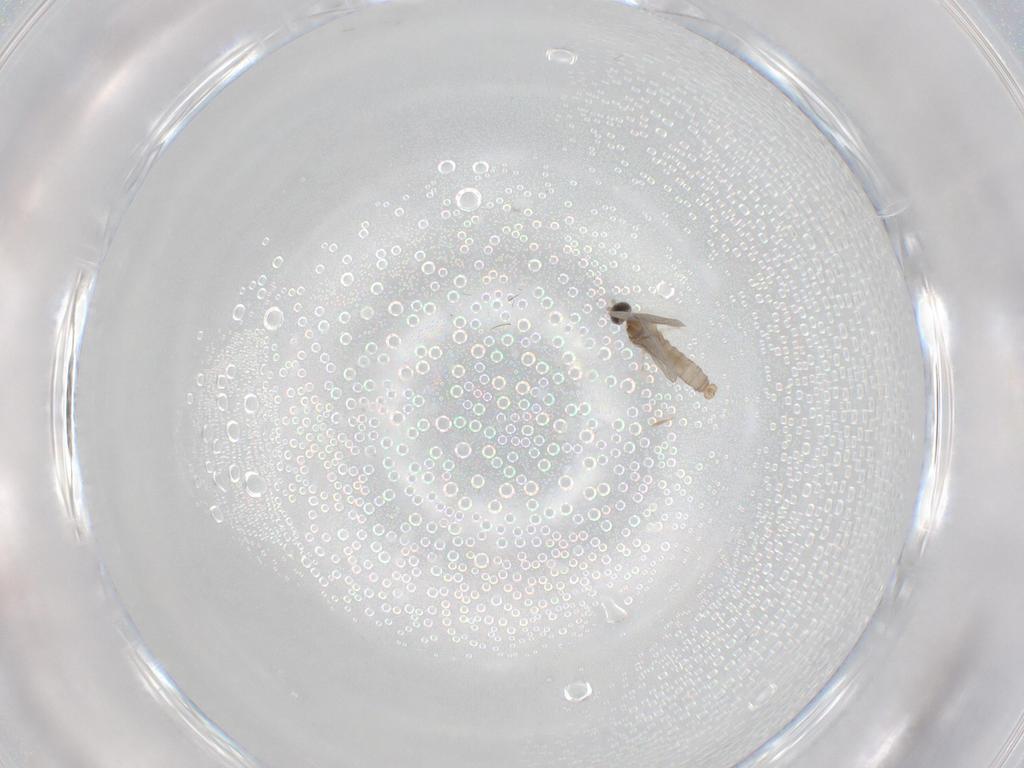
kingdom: Animalia
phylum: Arthropoda
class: Insecta
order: Diptera
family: Cecidomyiidae
